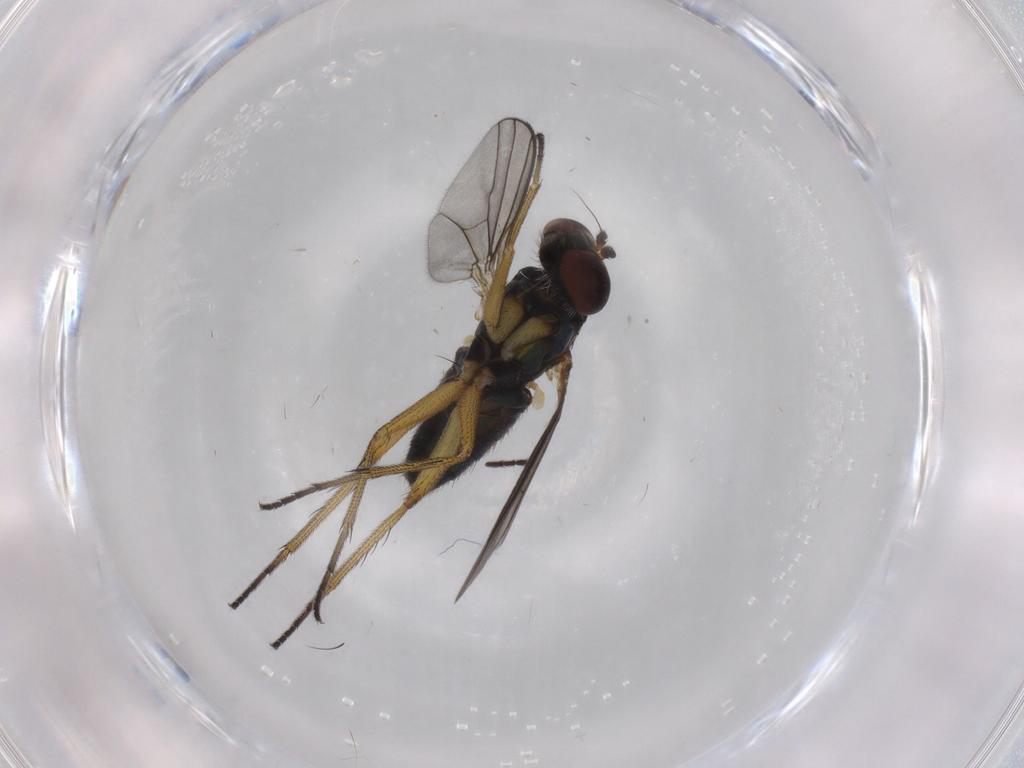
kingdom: Animalia
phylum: Arthropoda
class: Insecta
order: Diptera
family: Dolichopodidae
